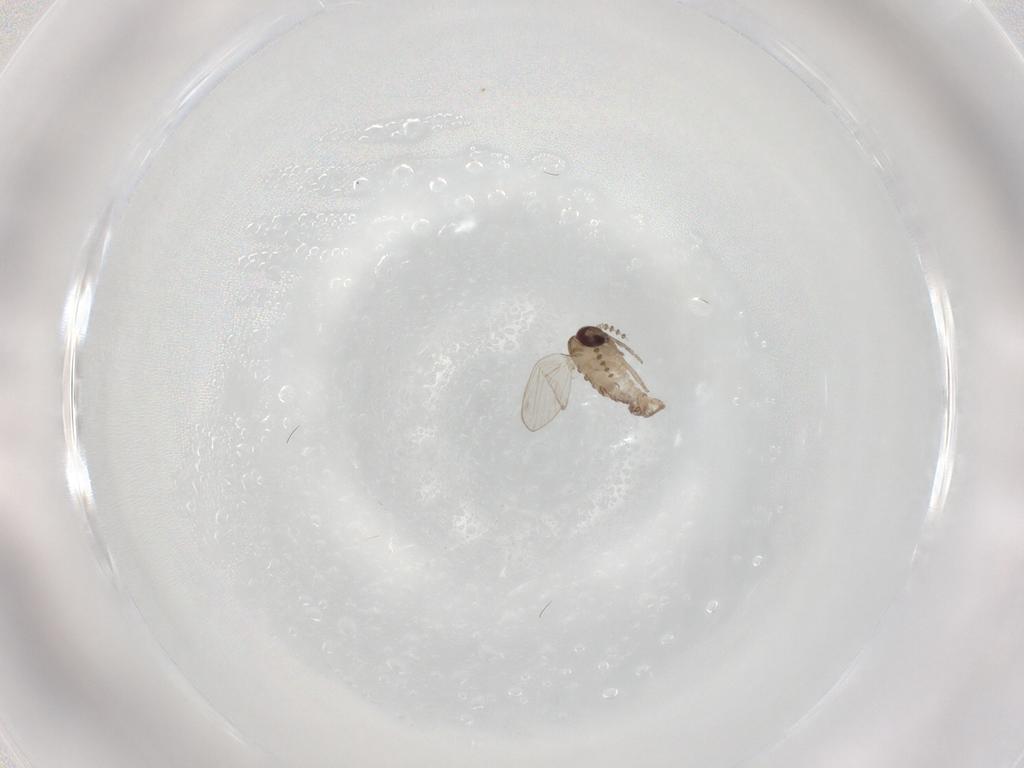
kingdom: Animalia
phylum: Arthropoda
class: Insecta
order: Diptera
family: Psychodidae
